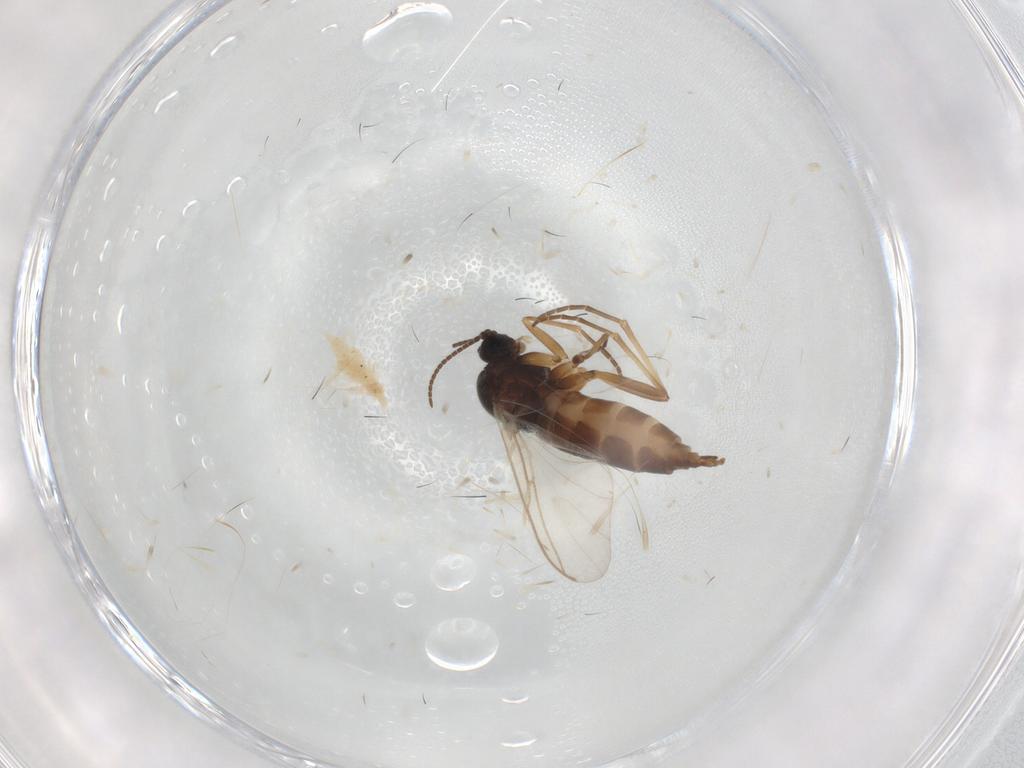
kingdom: Animalia
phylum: Arthropoda
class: Insecta
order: Diptera
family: Sciaridae
